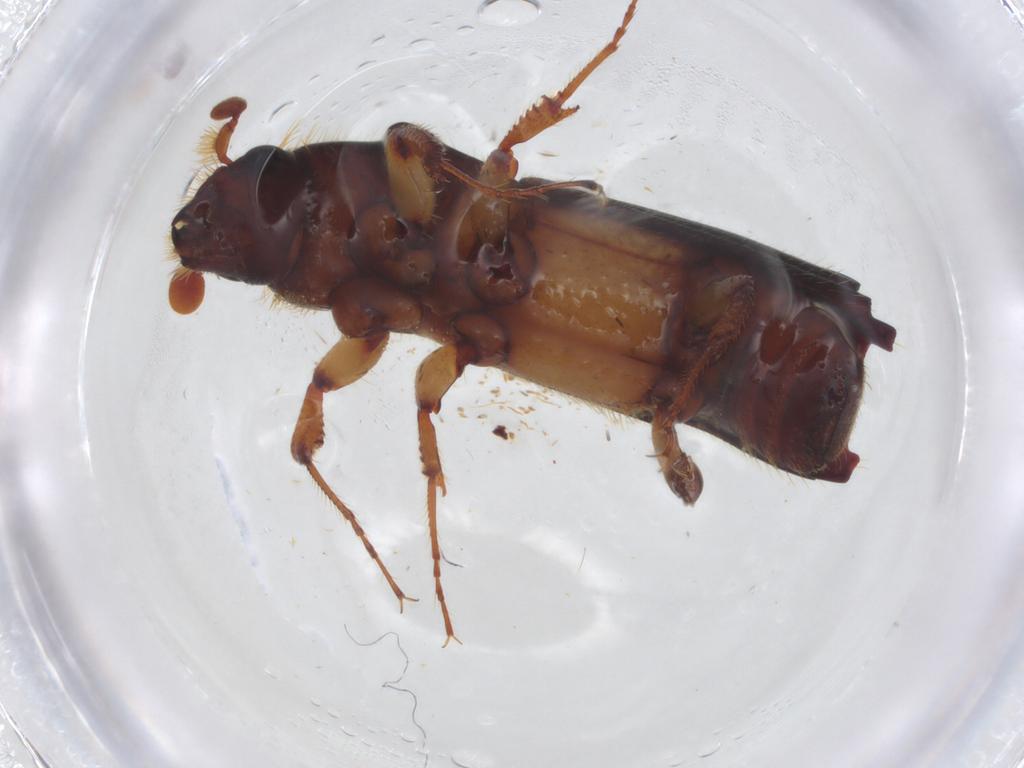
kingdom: Animalia
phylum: Arthropoda
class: Insecta
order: Coleoptera
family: Curculionidae
